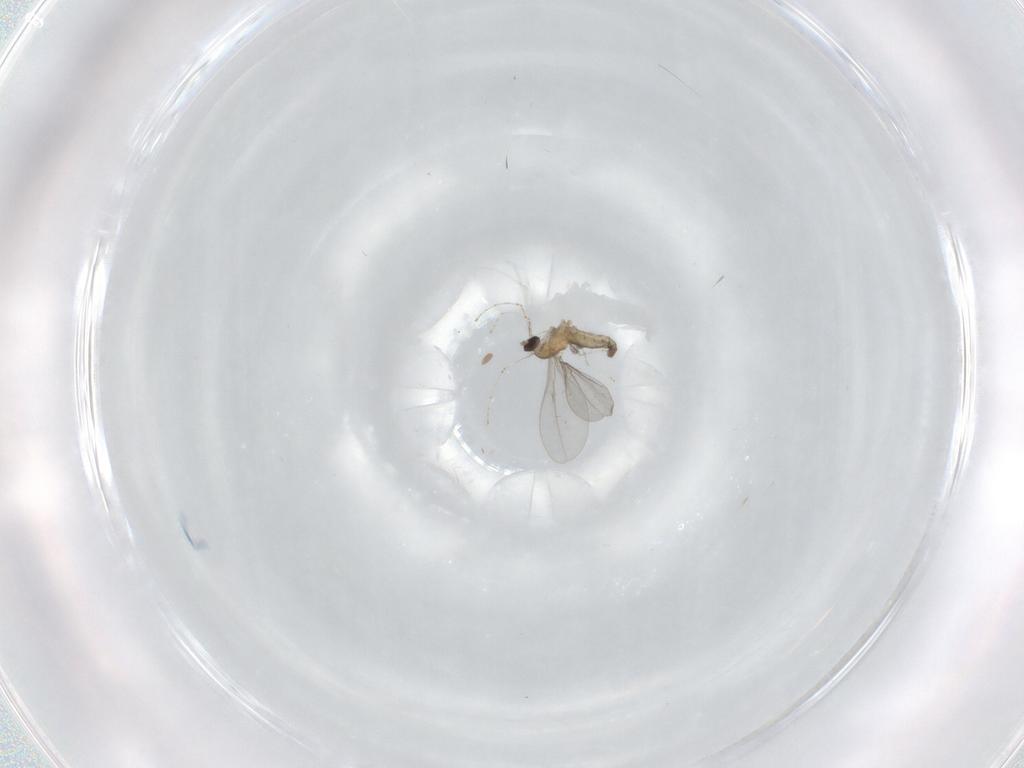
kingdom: Animalia
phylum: Arthropoda
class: Insecta
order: Diptera
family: Cecidomyiidae
